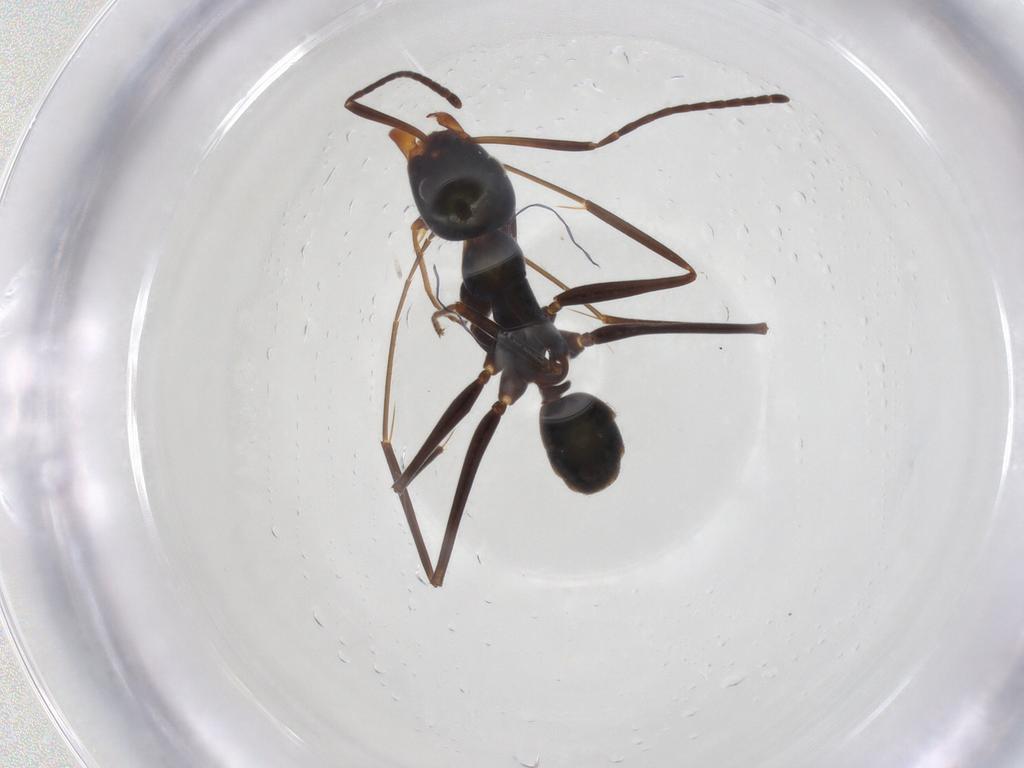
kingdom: Animalia
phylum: Arthropoda
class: Insecta
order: Hymenoptera
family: Formicidae
